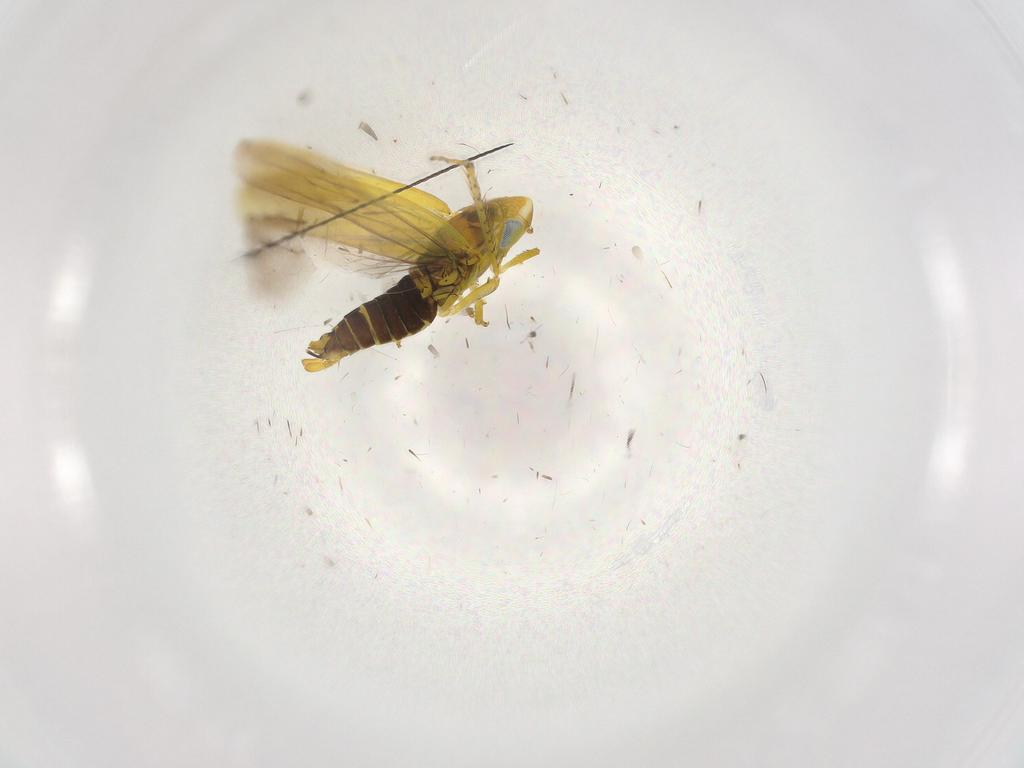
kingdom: Animalia
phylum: Arthropoda
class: Insecta
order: Hemiptera
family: Cicadellidae
